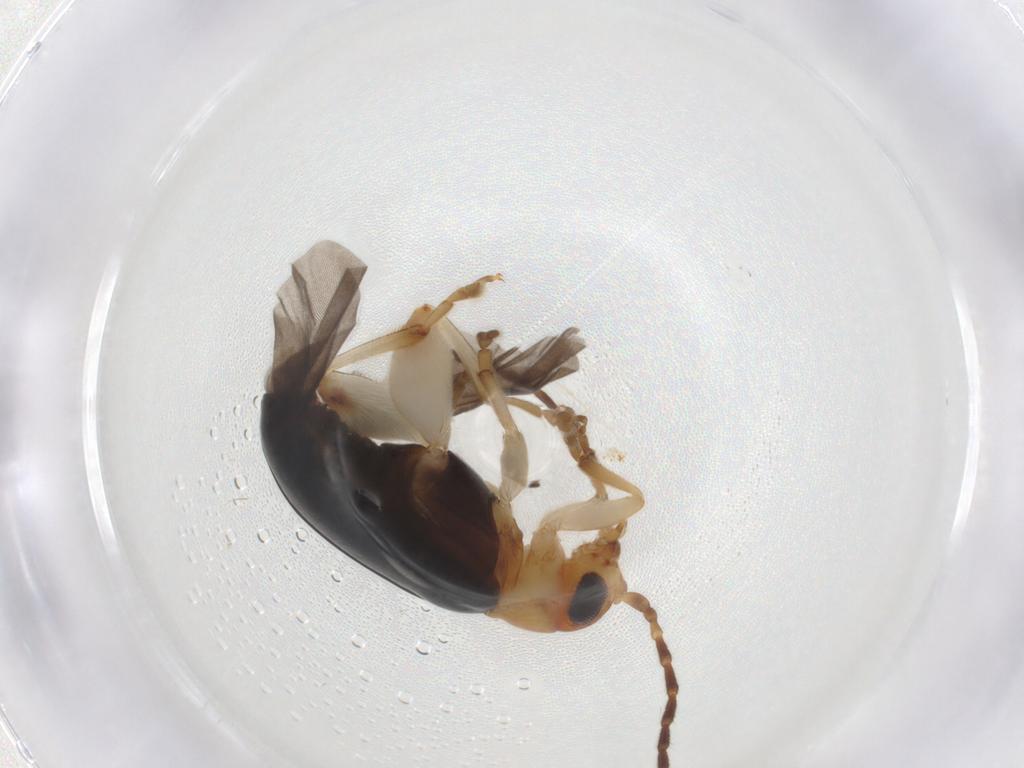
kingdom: Animalia
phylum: Arthropoda
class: Insecta
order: Coleoptera
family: Chrysomelidae
